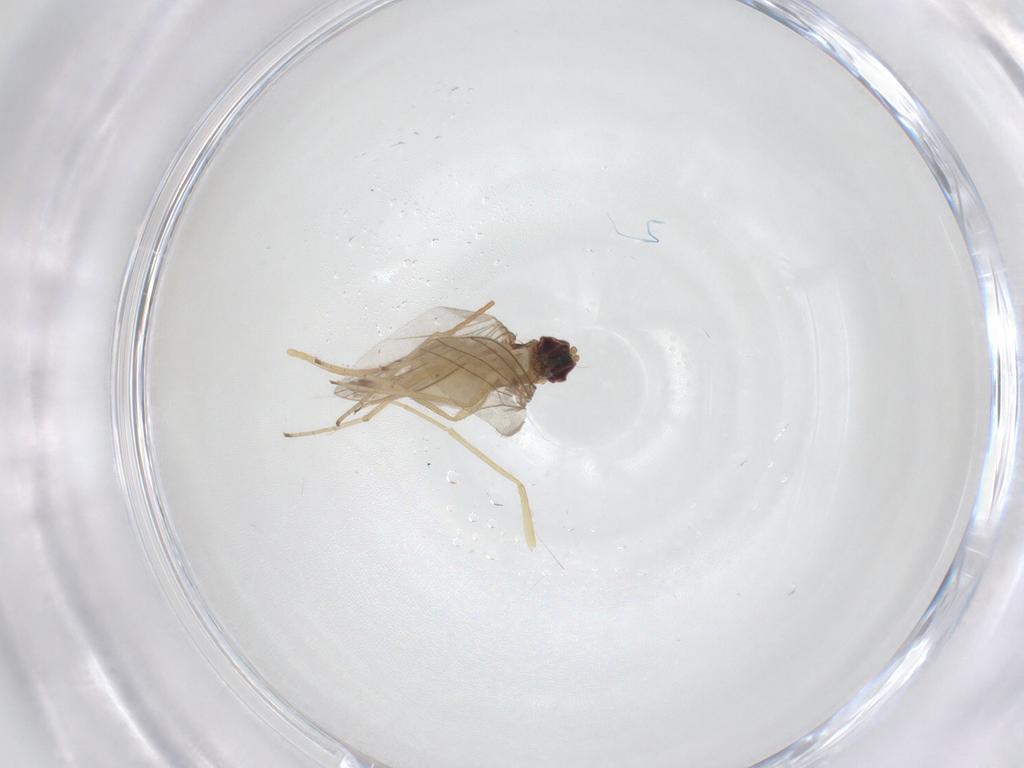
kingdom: Animalia
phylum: Arthropoda
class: Insecta
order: Diptera
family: Dolichopodidae
